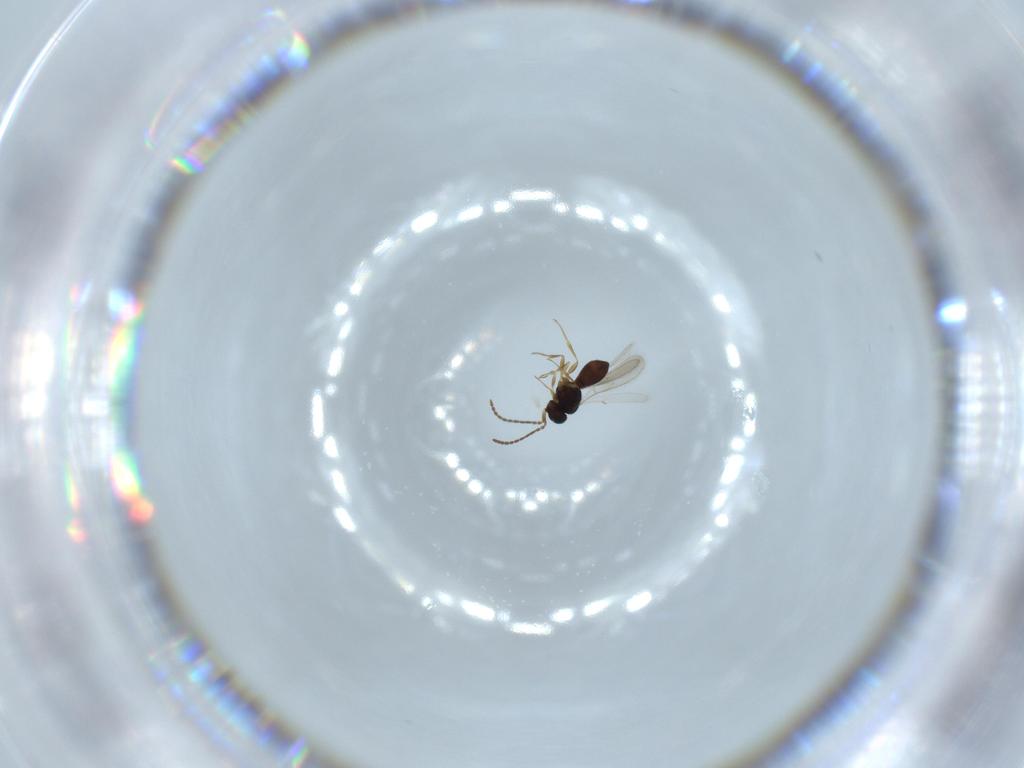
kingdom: Animalia
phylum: Arthropoda
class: Insecta
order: Hymenoptera
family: Scelionidae
